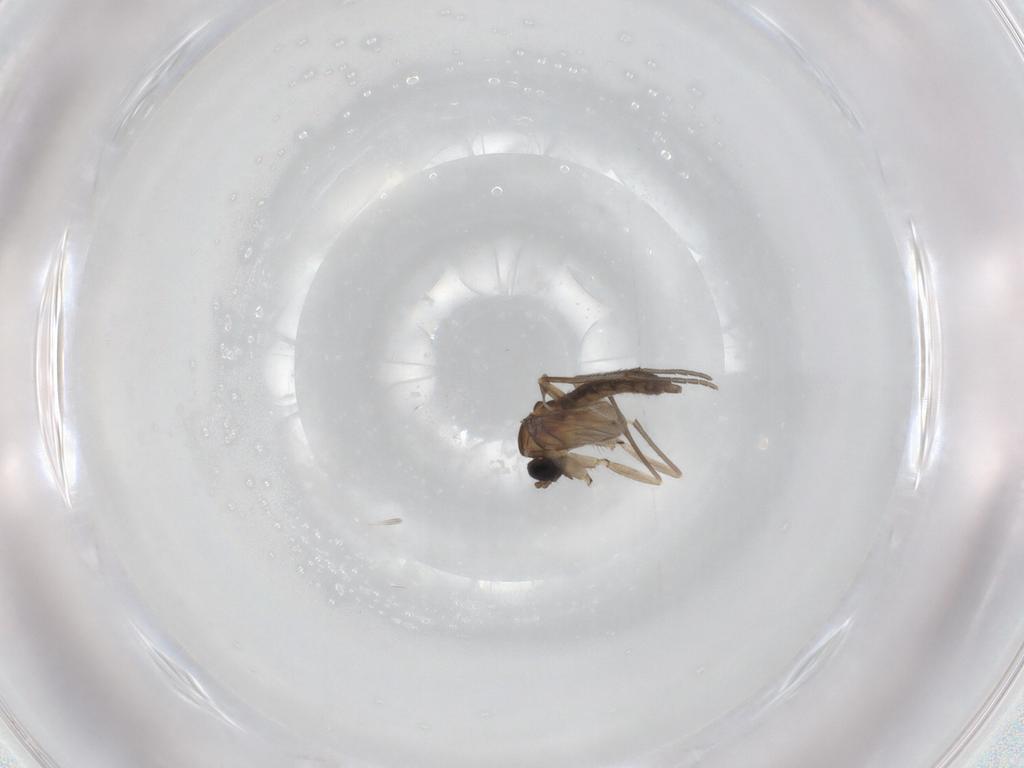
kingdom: Animalia
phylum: Arthropoda
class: Insecta
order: Diptera
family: Sciaridae
